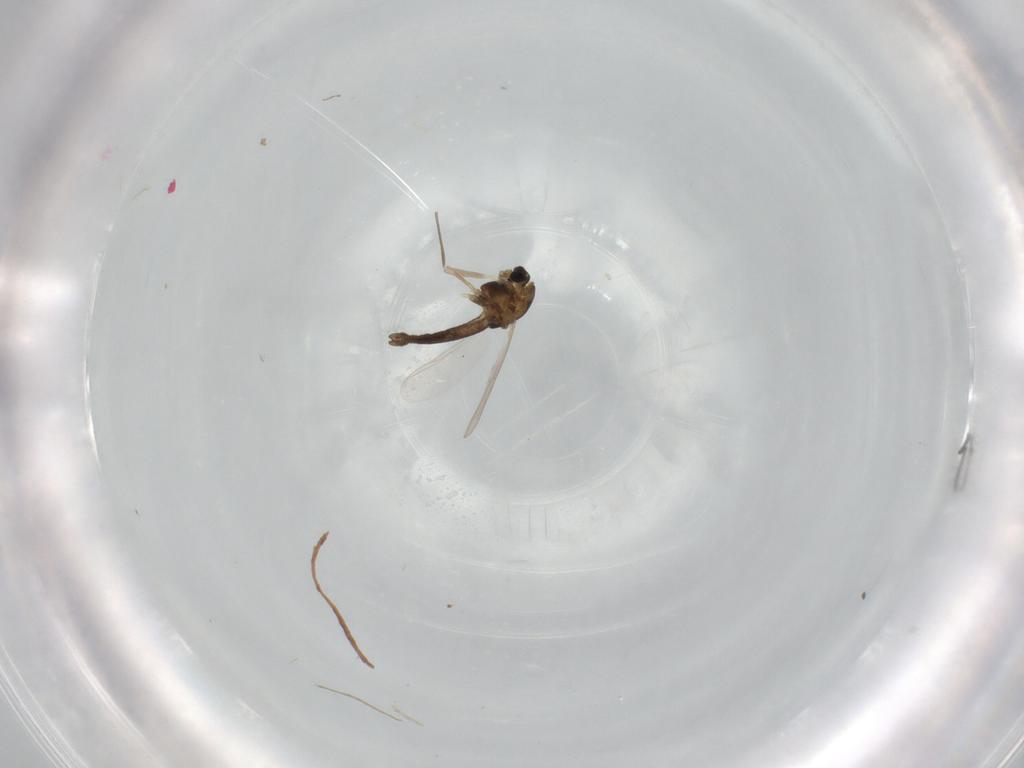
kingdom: Animalia
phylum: Arthropoda
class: Insecta
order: Diptera
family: Chironomidae
